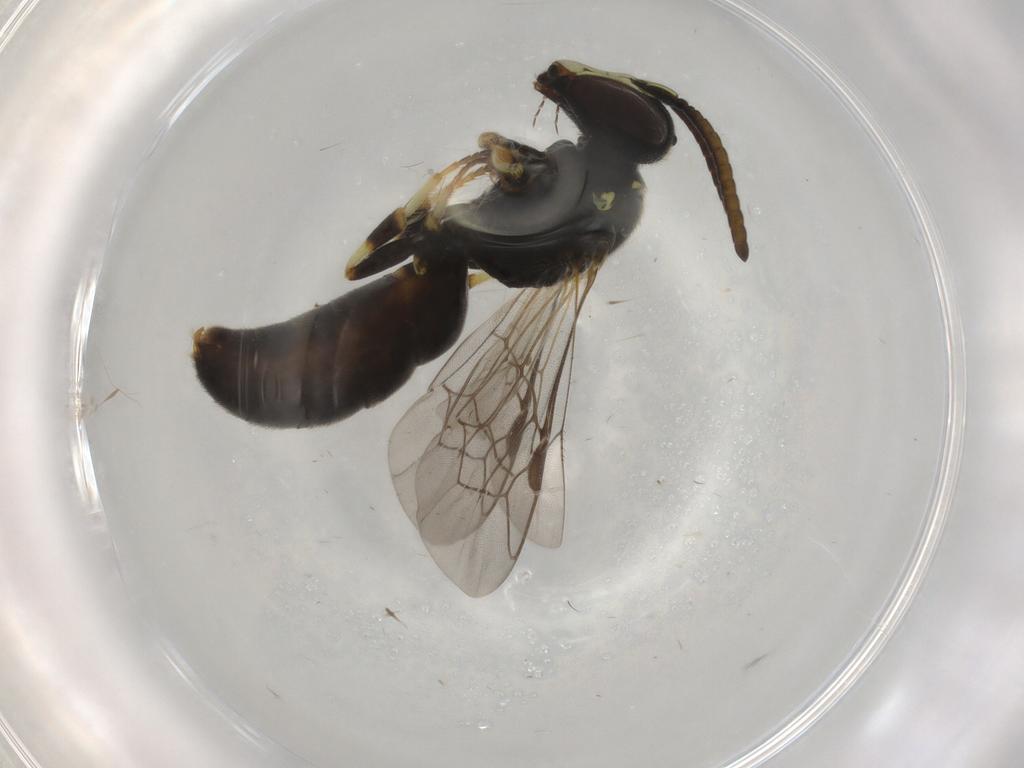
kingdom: Animalia
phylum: Arthropoda
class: Insecta
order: Hymenoptera
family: Colletidae
